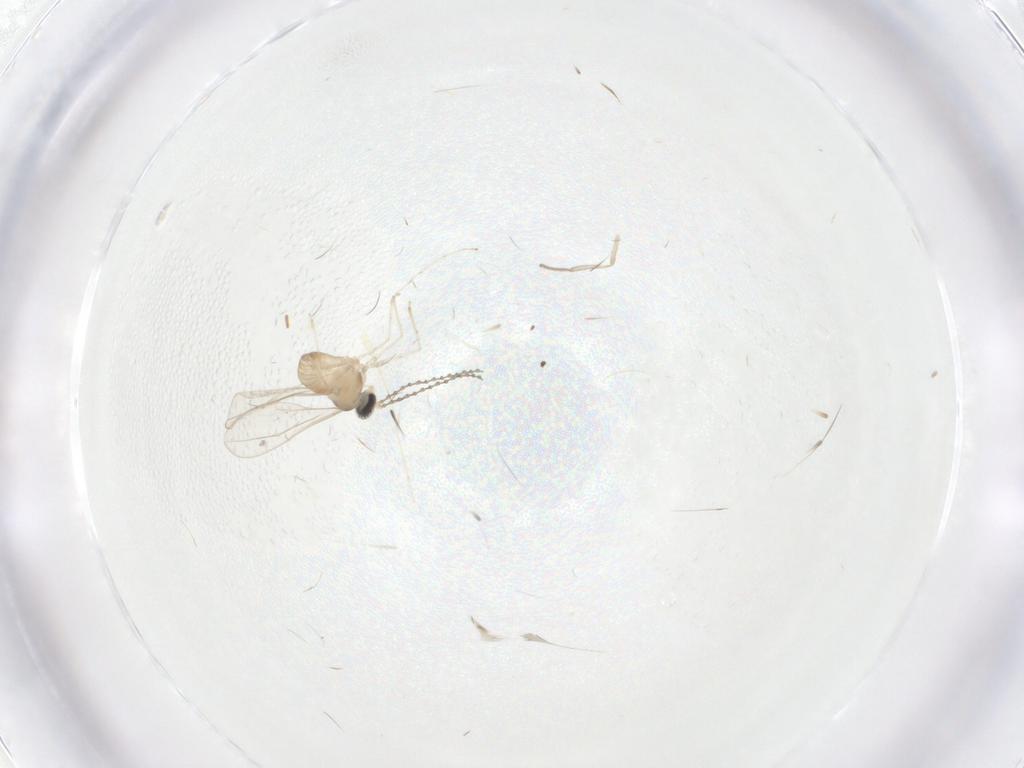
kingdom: Animalia
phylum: Arthropoda
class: Insecta
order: Diptera
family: Cecidomyiidae
